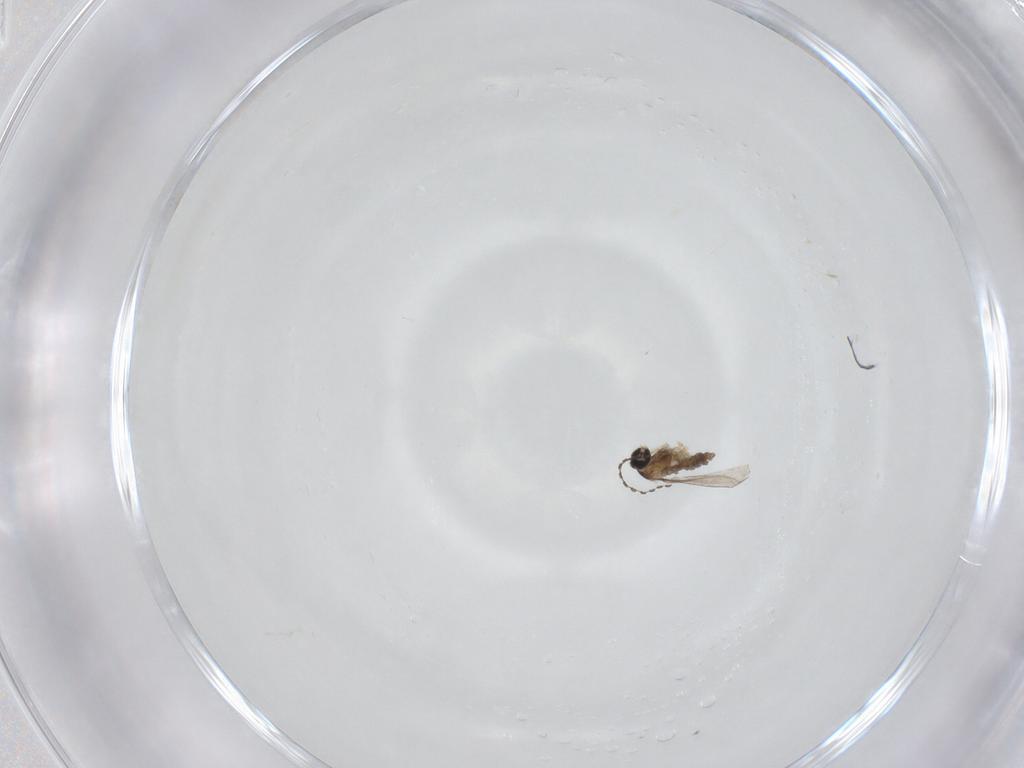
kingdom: Animalia
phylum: Arthropoda
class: Insecta
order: Diptera
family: Cecidomyiidae
